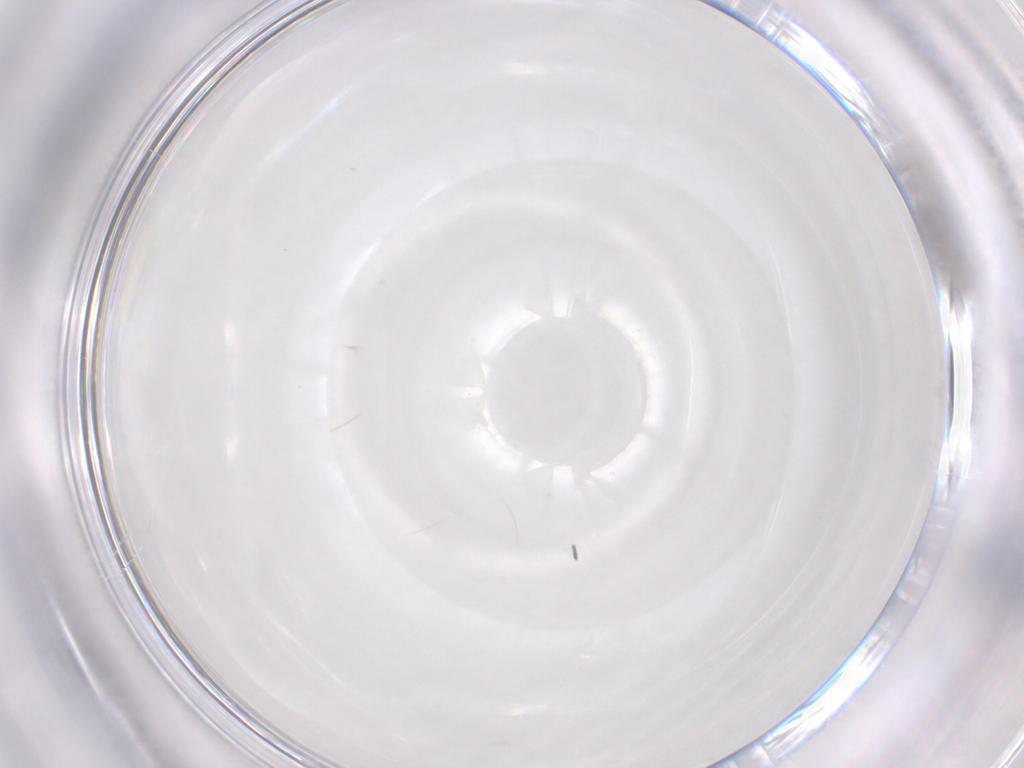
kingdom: Animalia
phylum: Arthropoda
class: Insecta
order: Diptera
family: Cecidomyiidae
